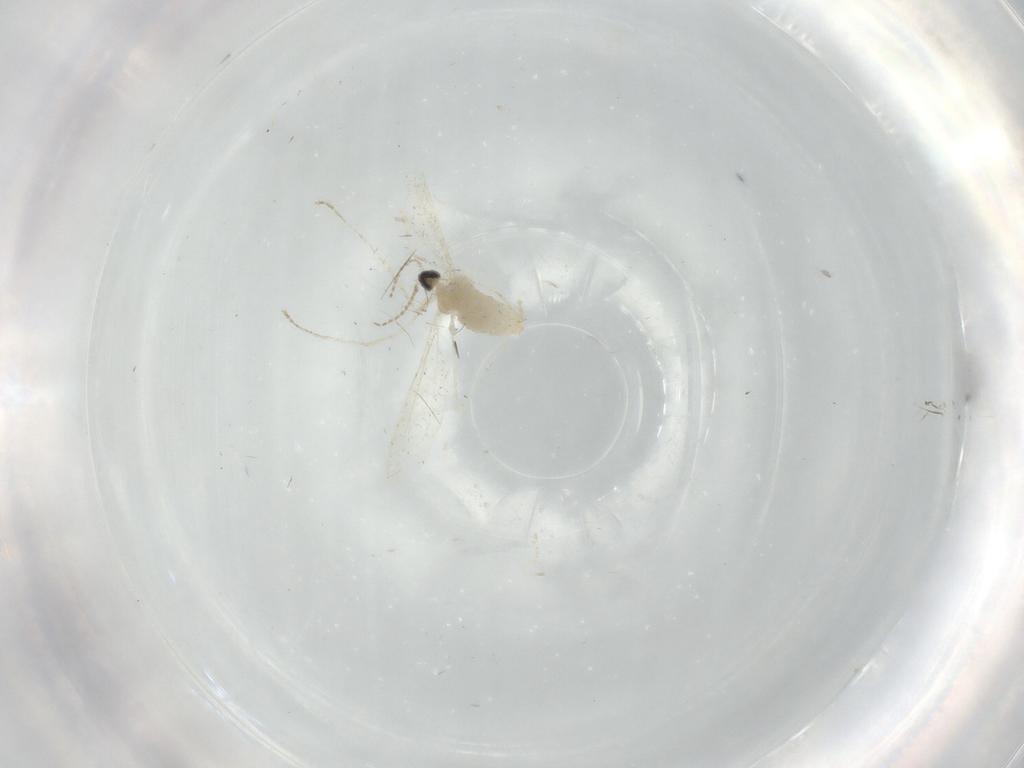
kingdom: Animalia
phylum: Arthropoda
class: Insecta
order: Diptera
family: Cecidomyiidae
